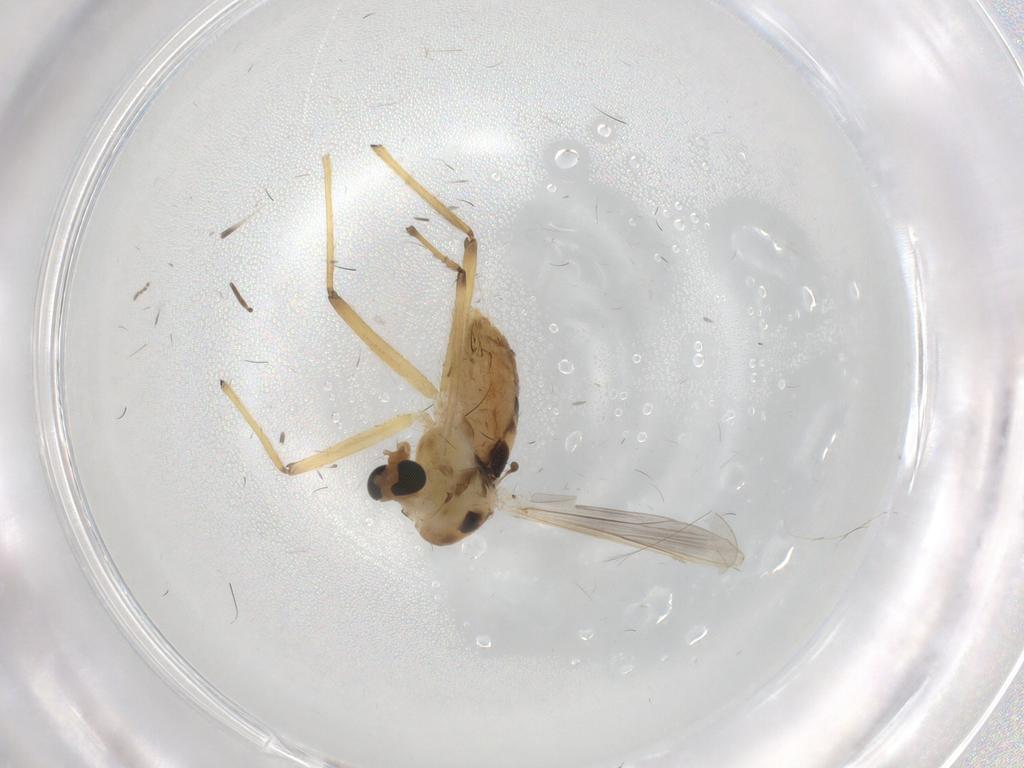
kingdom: Animalia
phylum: Arthropoda
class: Insecta
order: Diptera
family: Chironomidae
